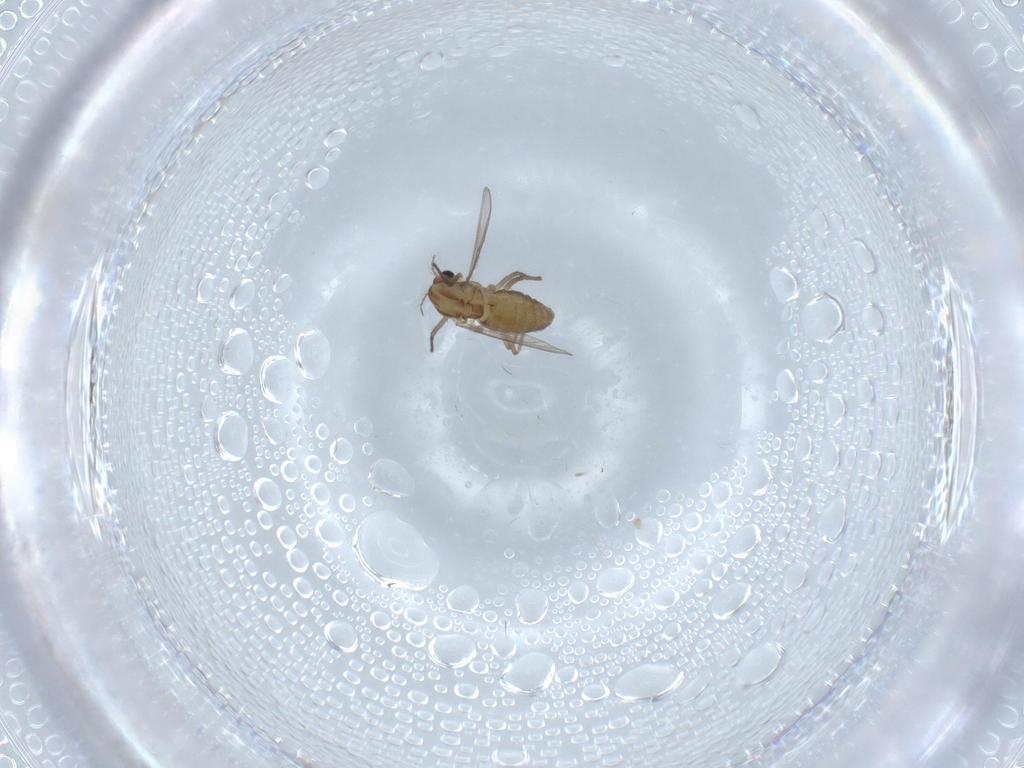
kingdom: Animalia
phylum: Arthropoda
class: Insecta
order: Diptera
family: Chironomidae
